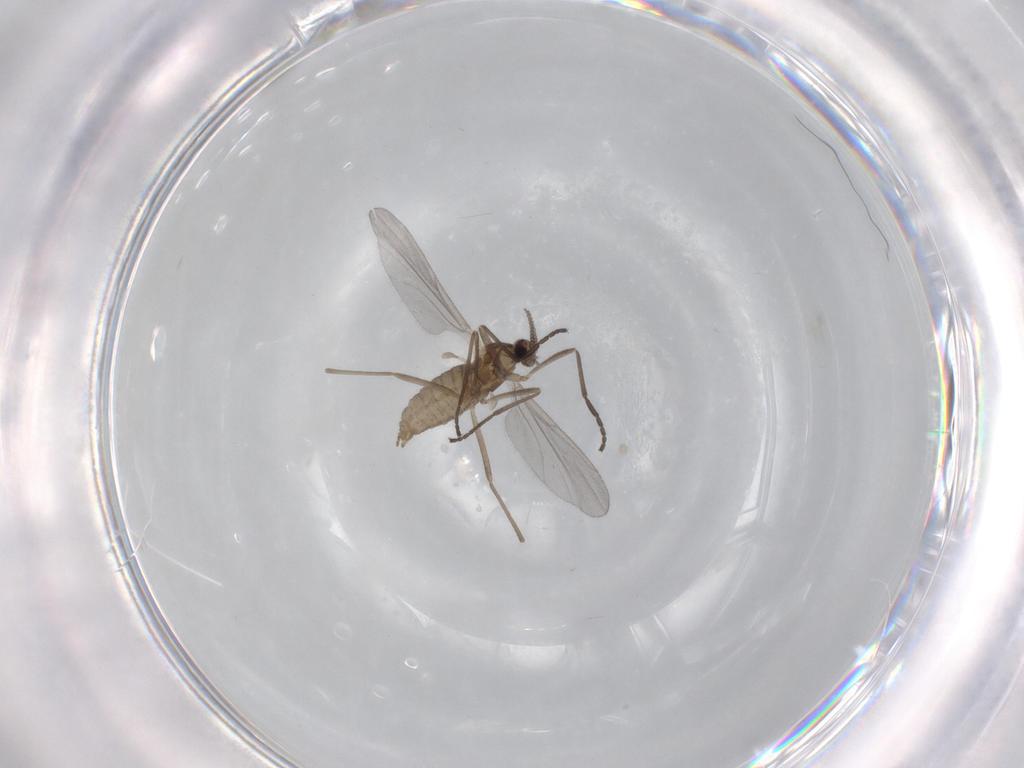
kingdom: Animalia
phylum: Arthropoda
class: Insecta
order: Diptera
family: Cecidomyiidae
